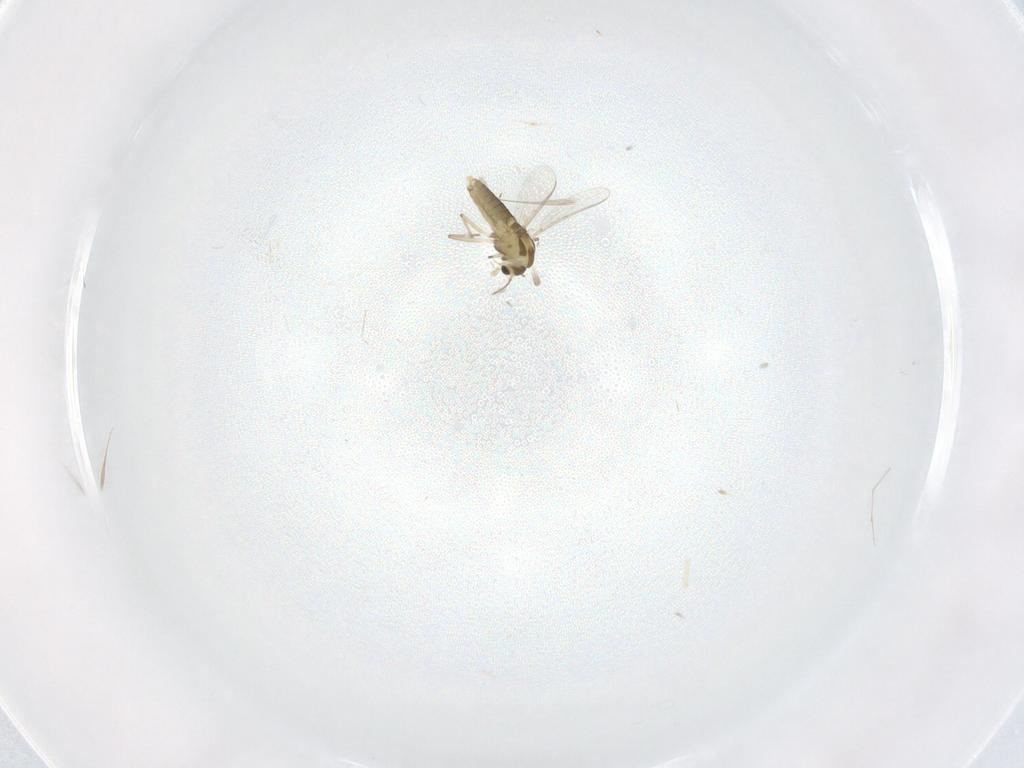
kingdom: Animalia
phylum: Arthropoda
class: Insecta
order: Diptera
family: Cecidomyiidae
